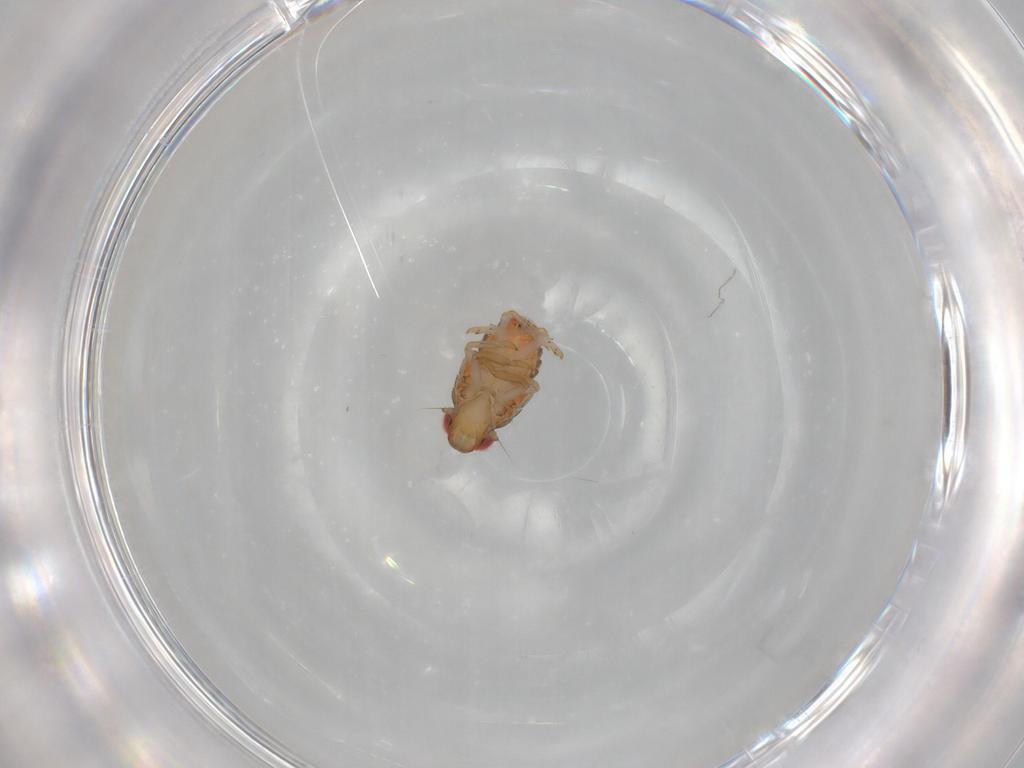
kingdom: Animalia
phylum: Arthropoda
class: Insecta
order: Hemiptera
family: Issidae
